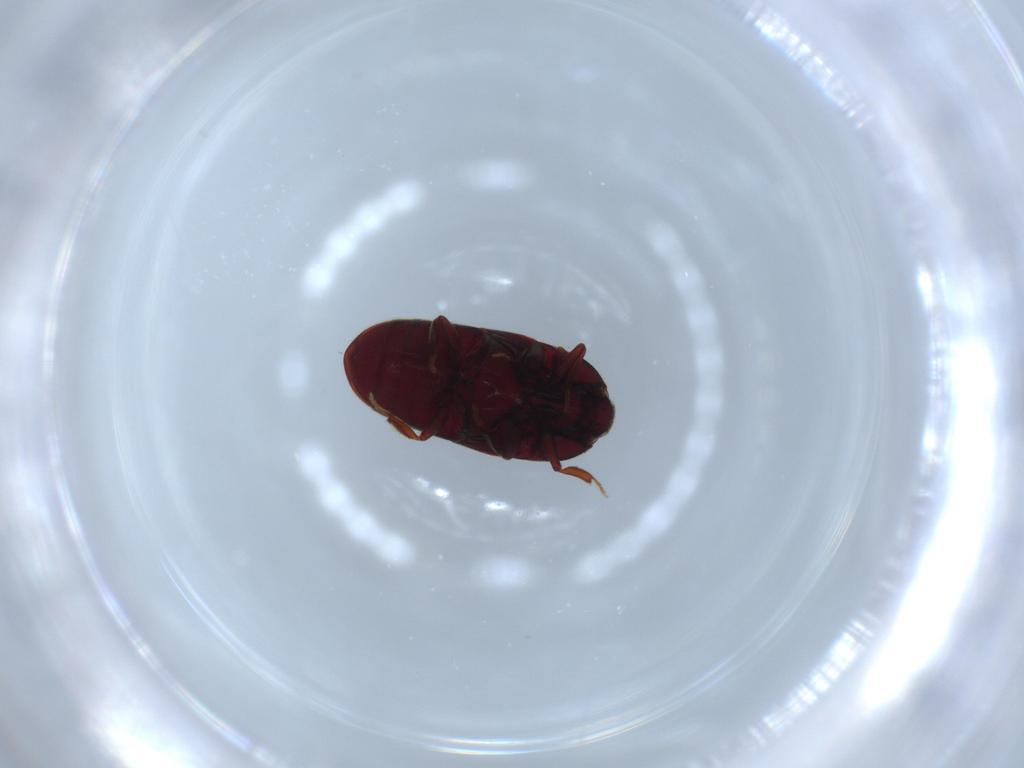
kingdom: Animalia
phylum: Arthropoda
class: Insecta
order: Coleoptera
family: Throscidae
